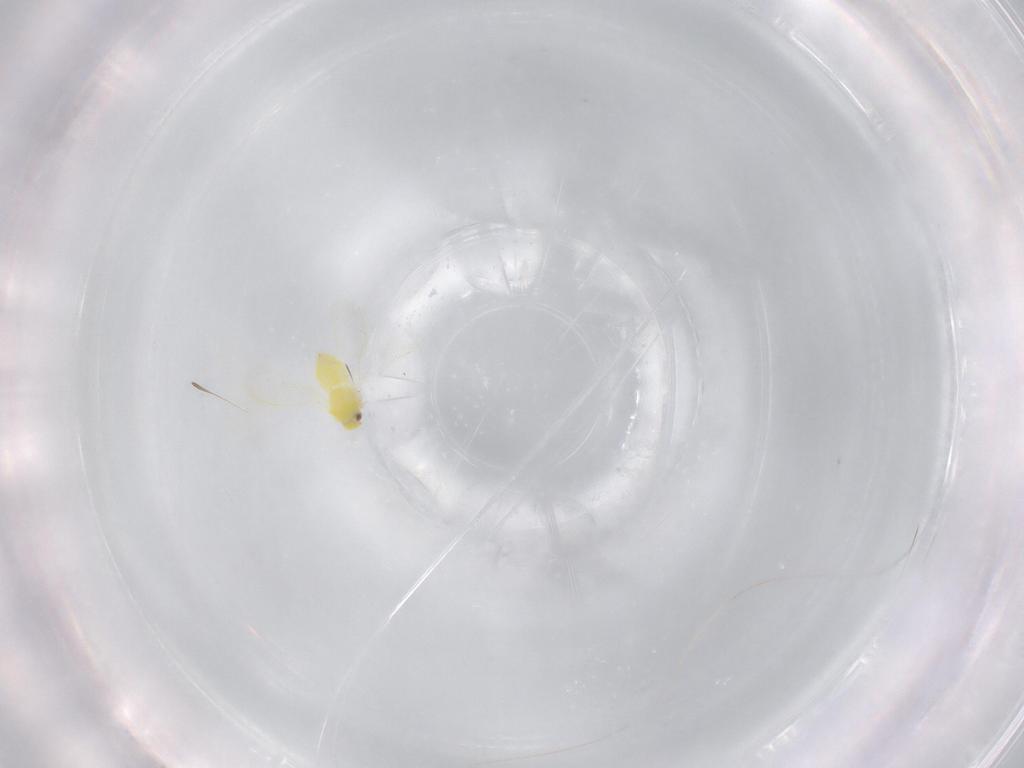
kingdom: Animalia
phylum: Arthropoda
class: Insecta
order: Hemiptera
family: Aleyrodidae
